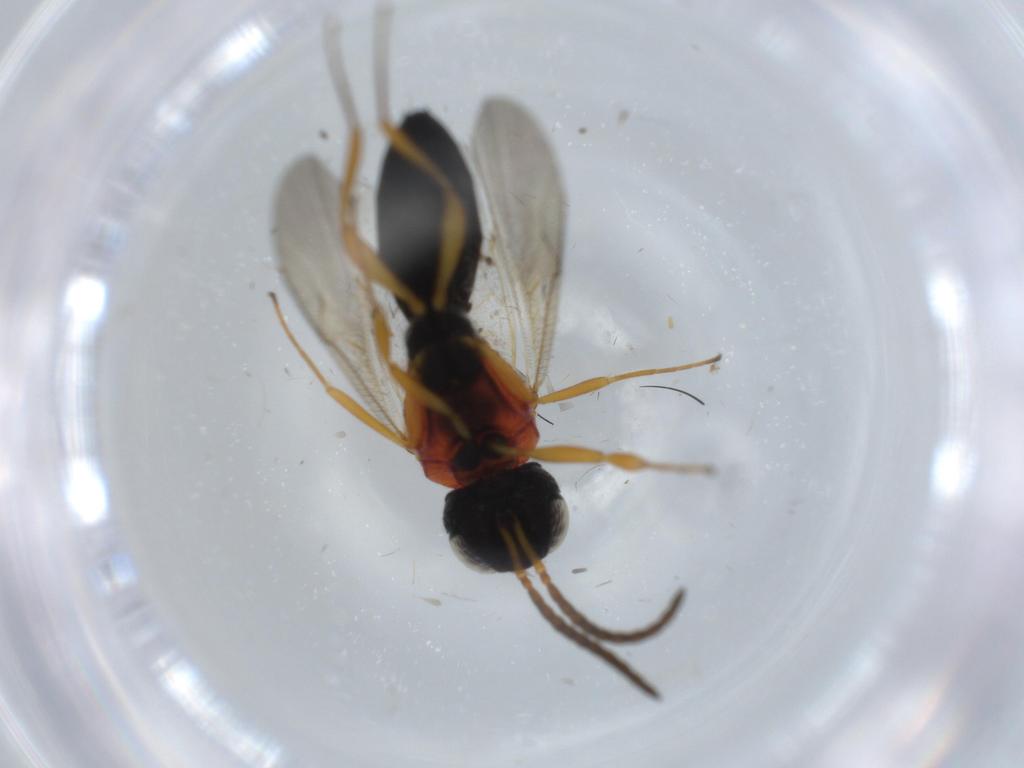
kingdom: Animalia
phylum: Arthropoda
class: Insecta
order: Hymenoptera
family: Scelionidae
